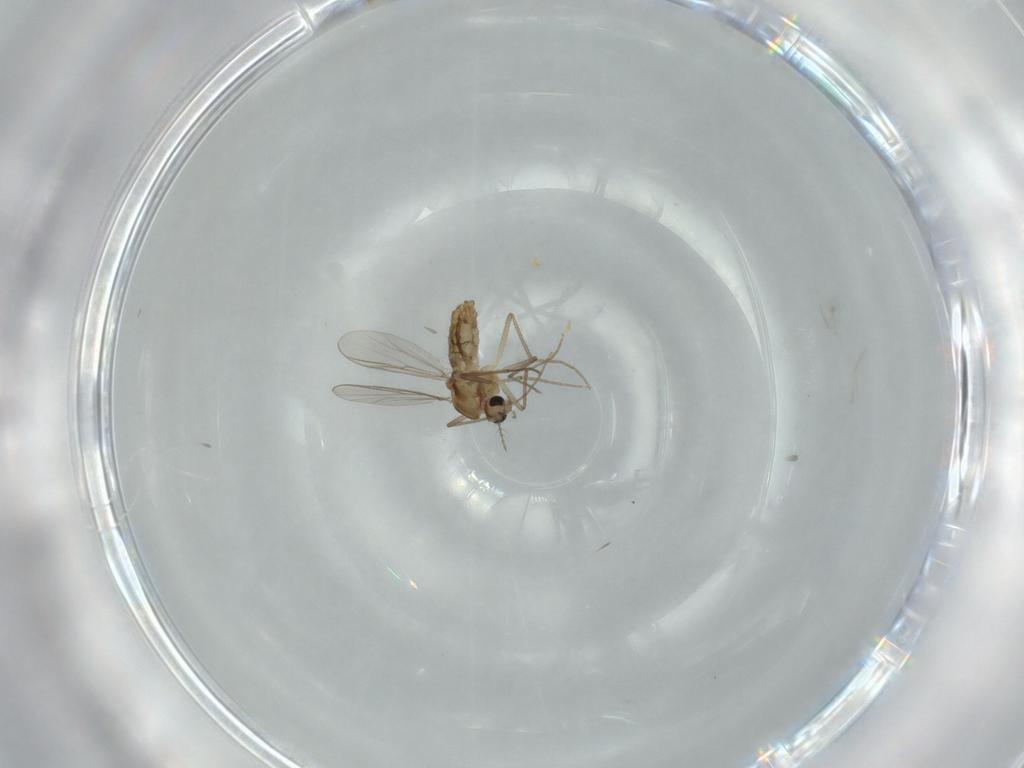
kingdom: Animalia
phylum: Arthropoda
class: Insecta
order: Diptera
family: Chironomidae
